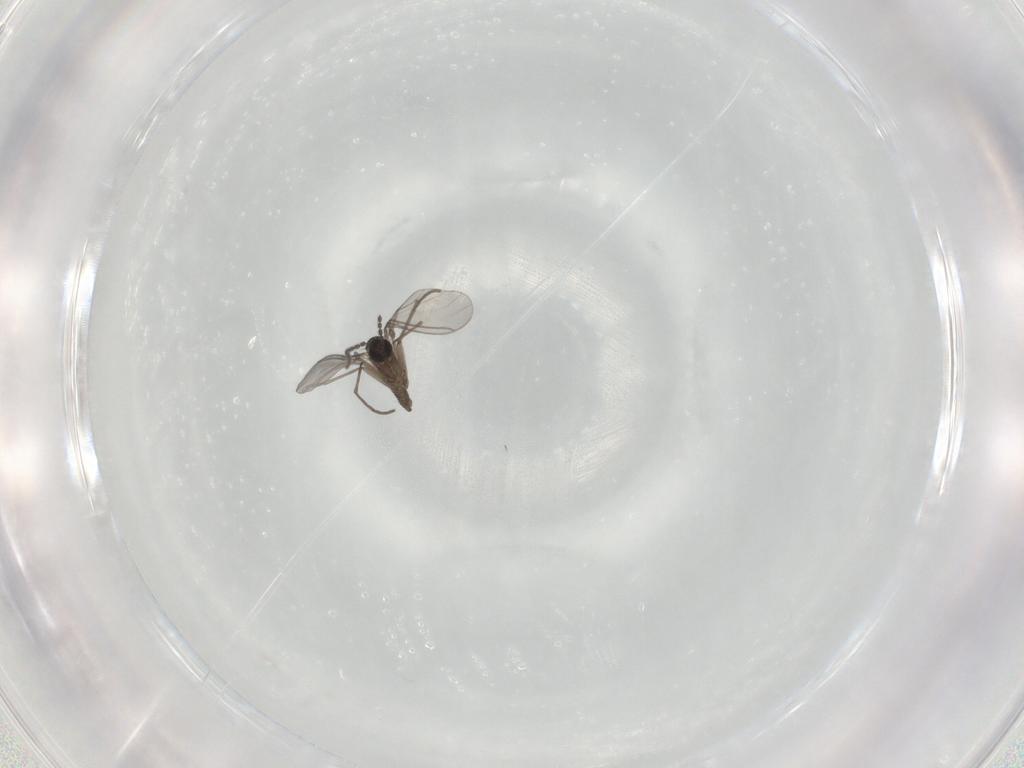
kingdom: Animalia
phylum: Arthropoda
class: Insecta
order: Diptera
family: Sciaridae
